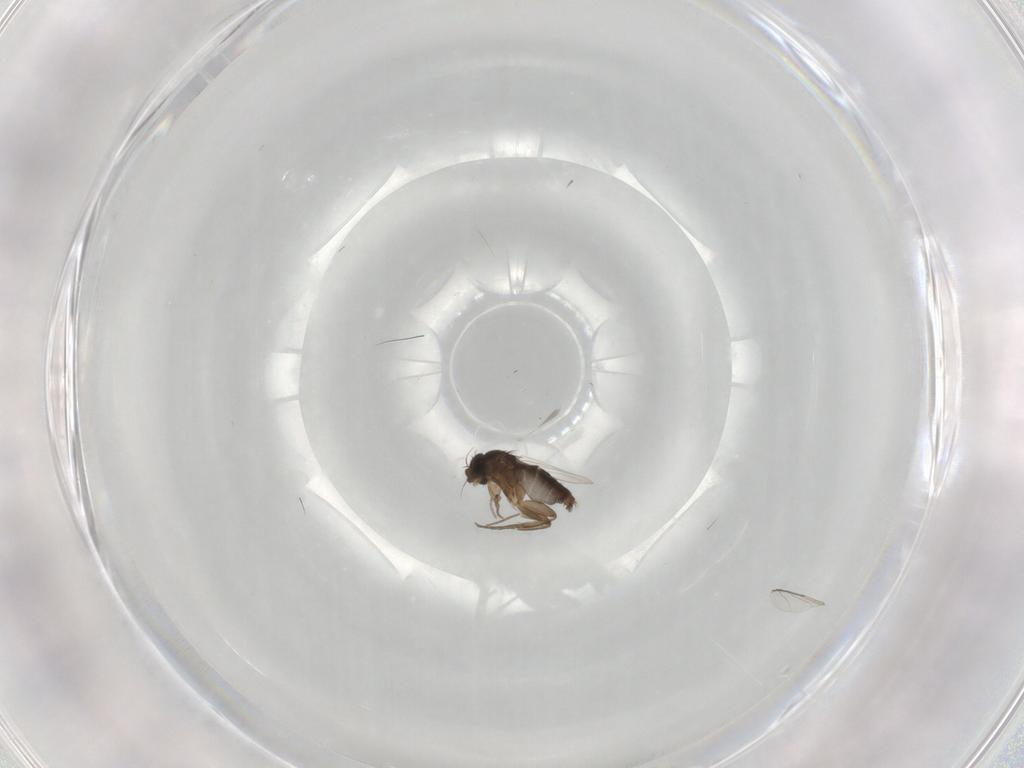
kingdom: Animalia
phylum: Arthropoda
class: Insecta
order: Diptera
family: Phoridae
